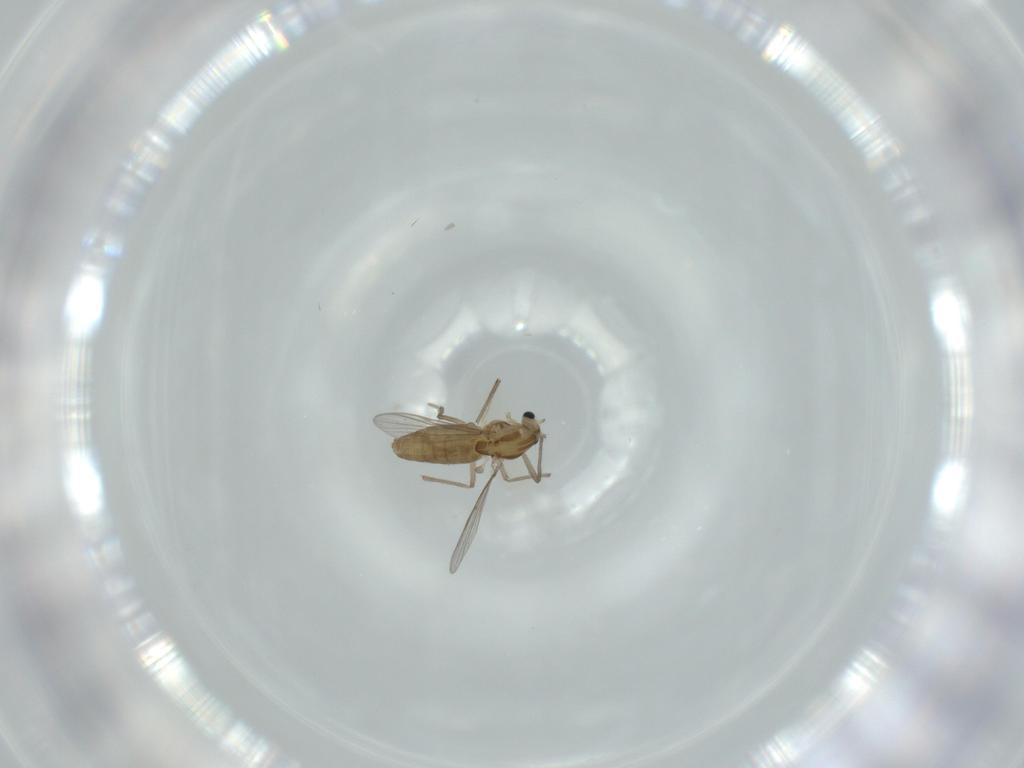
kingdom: Animalia
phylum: Arthropoda
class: Insecta
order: Diptera
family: Chironomidae
